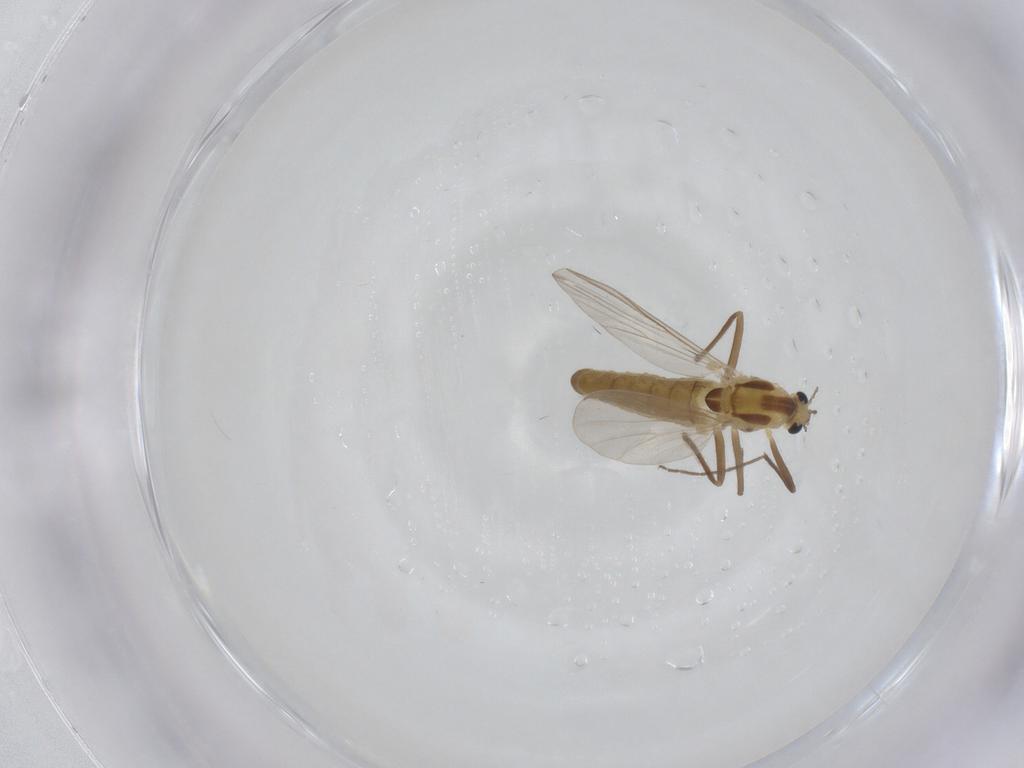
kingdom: Animalia
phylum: Arthropoda
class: Insecta
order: Diptera
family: Chironomidae
